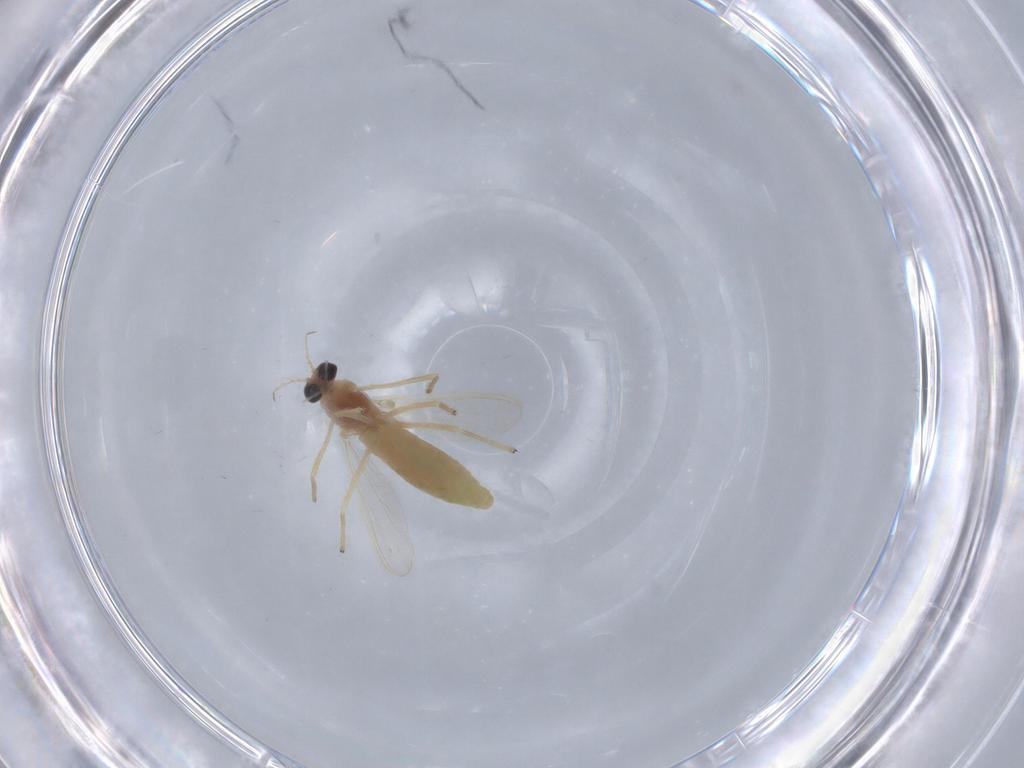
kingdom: Animalia
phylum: Arthropoda
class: Insecta
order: Diptera
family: Chironomidae
